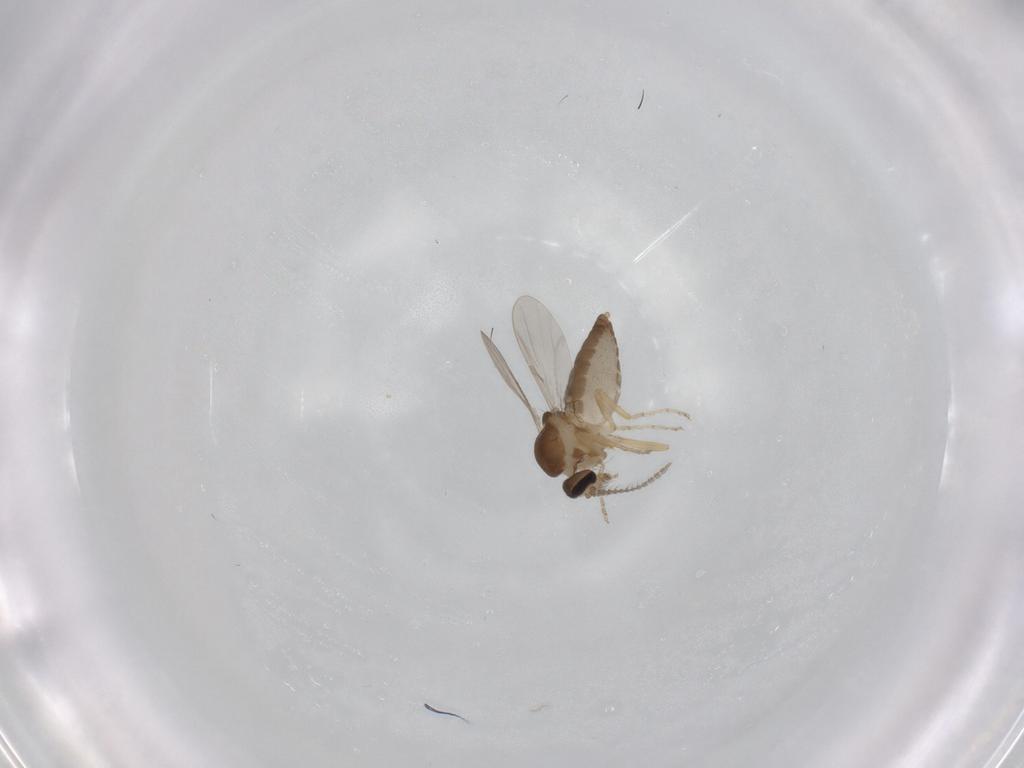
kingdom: Animalia
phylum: Arthropoda
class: Insecta
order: Diptera
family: Ceratopogonidae
